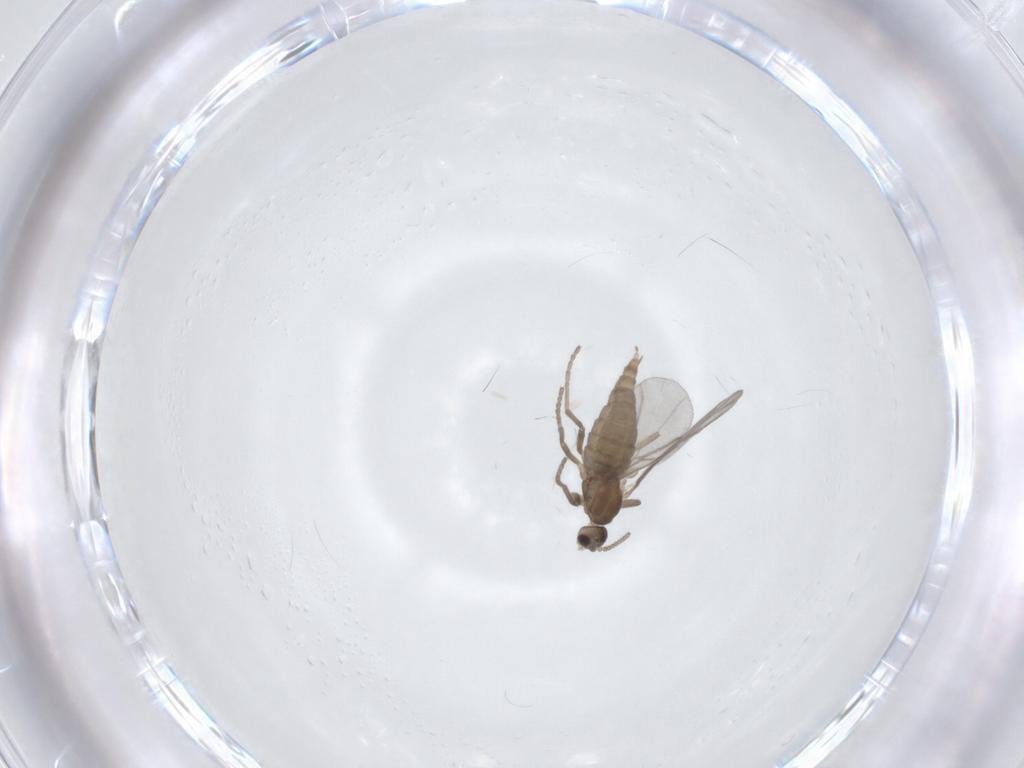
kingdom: Animalia
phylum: Arthropoda
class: Insecta
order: Diptera
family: Cecidomyiidae
